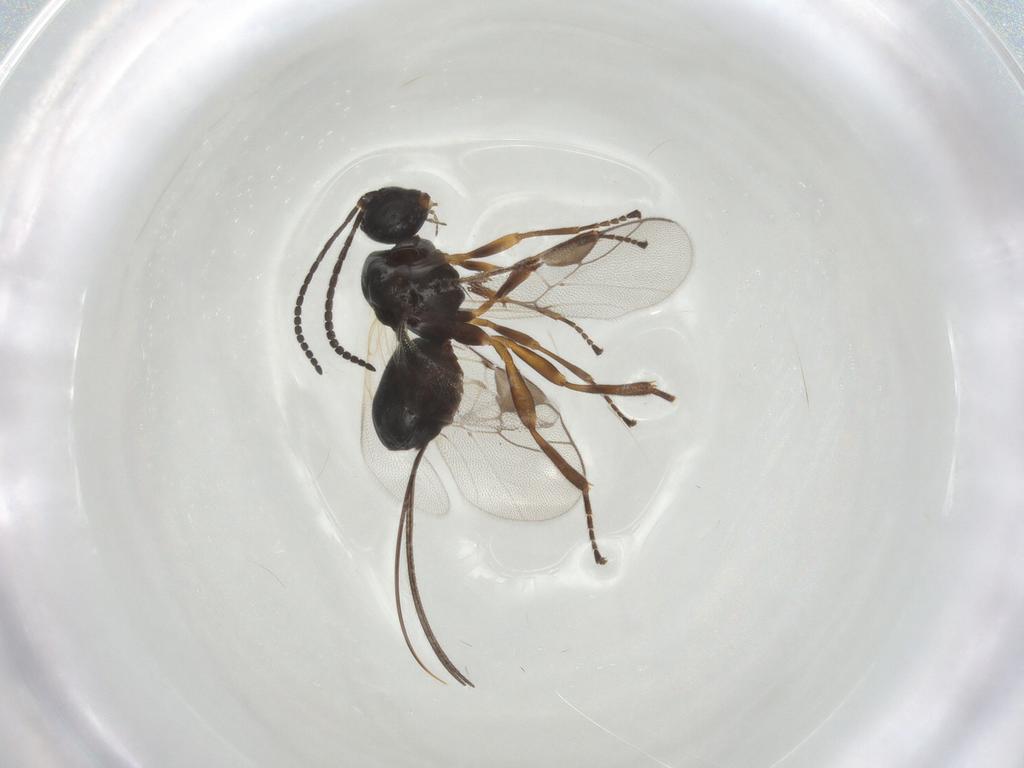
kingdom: Animalia
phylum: Arthropoda
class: Insecta
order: Hymenoptera
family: Braconidae
